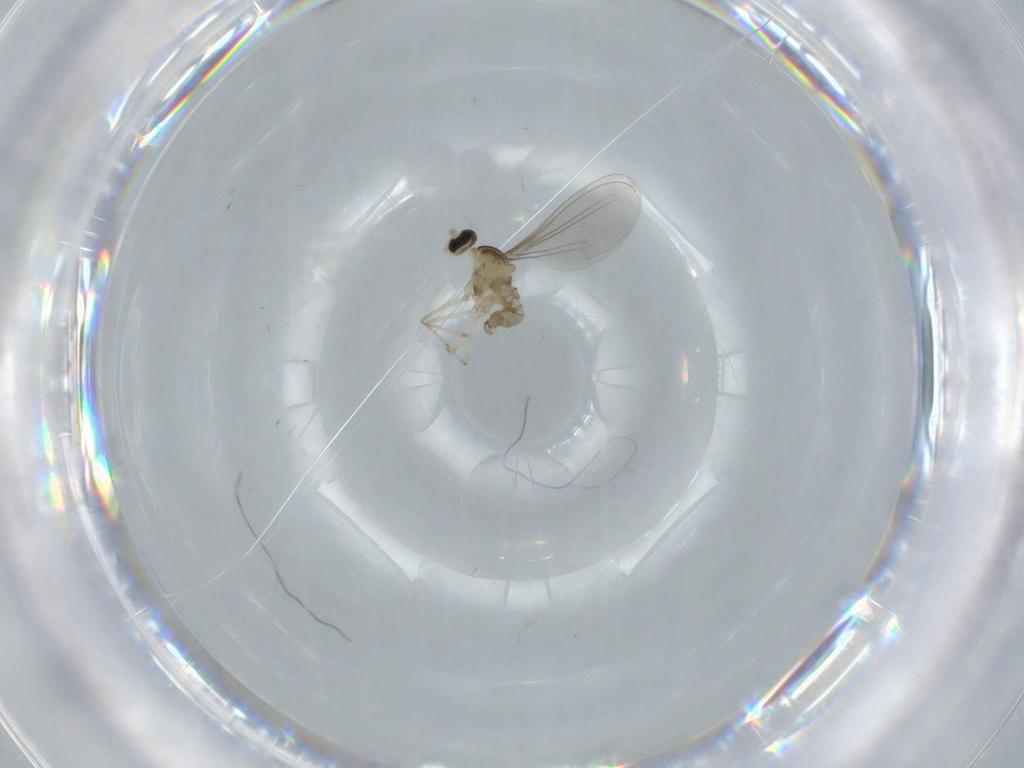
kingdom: Animalia
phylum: Arthropoda
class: Insecta
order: Diptera
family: Cecidomyiidae
